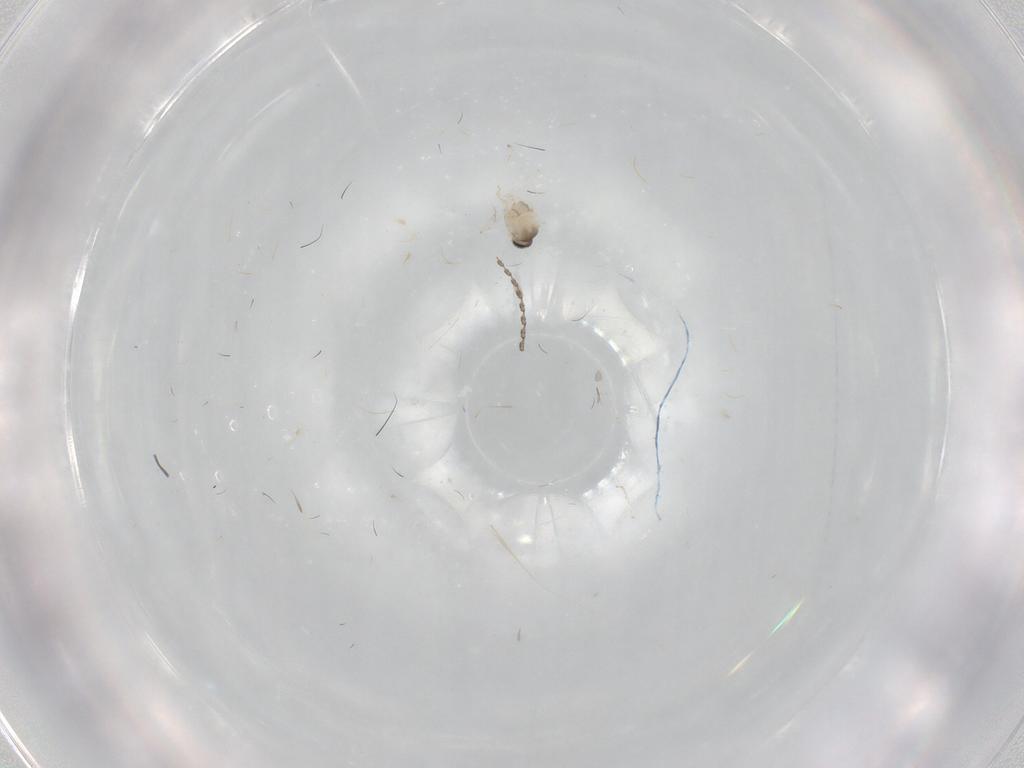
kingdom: Animalia
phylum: Arthropoda
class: Insecta
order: Diptera
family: Cecidomyiidae
